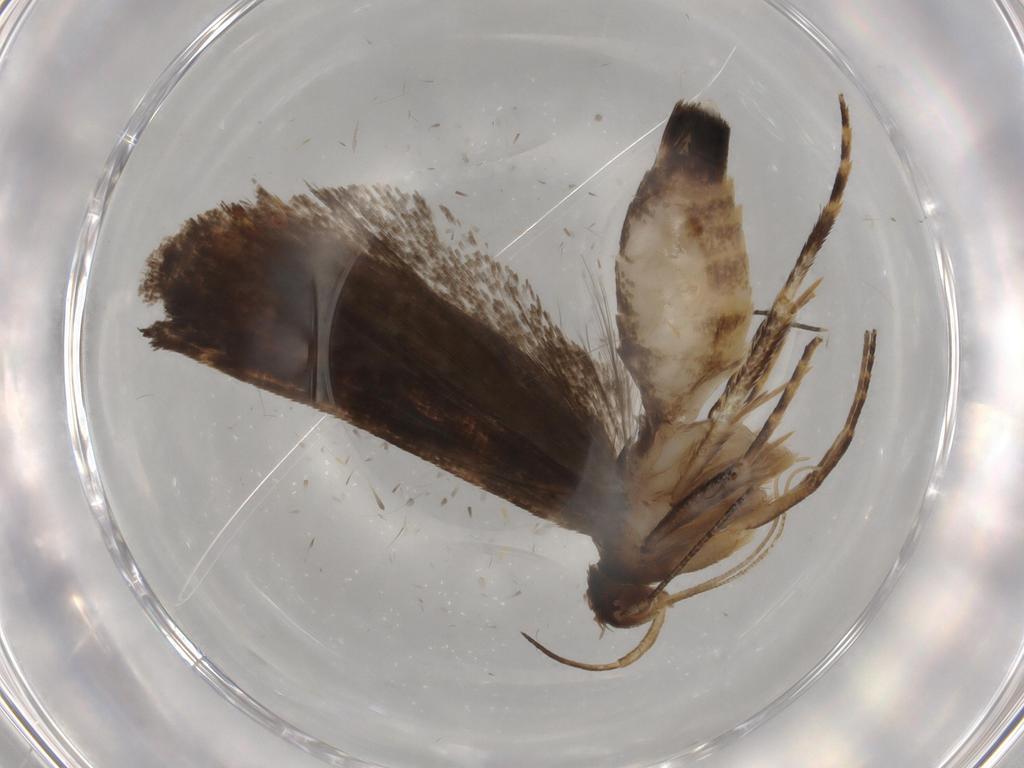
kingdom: Animalia
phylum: Arthropoda
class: Insecta
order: Lepidoptera
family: Gelechiidae
